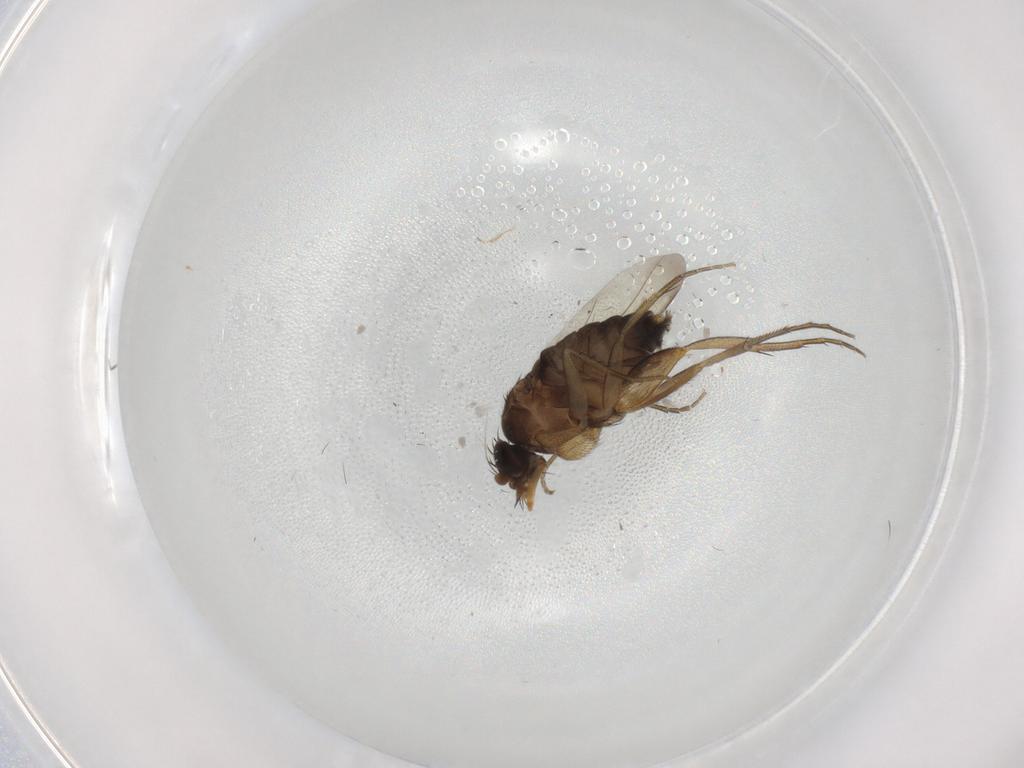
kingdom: Animalia
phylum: Arthropoda
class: Insecta
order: Diptera
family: Phoridae
